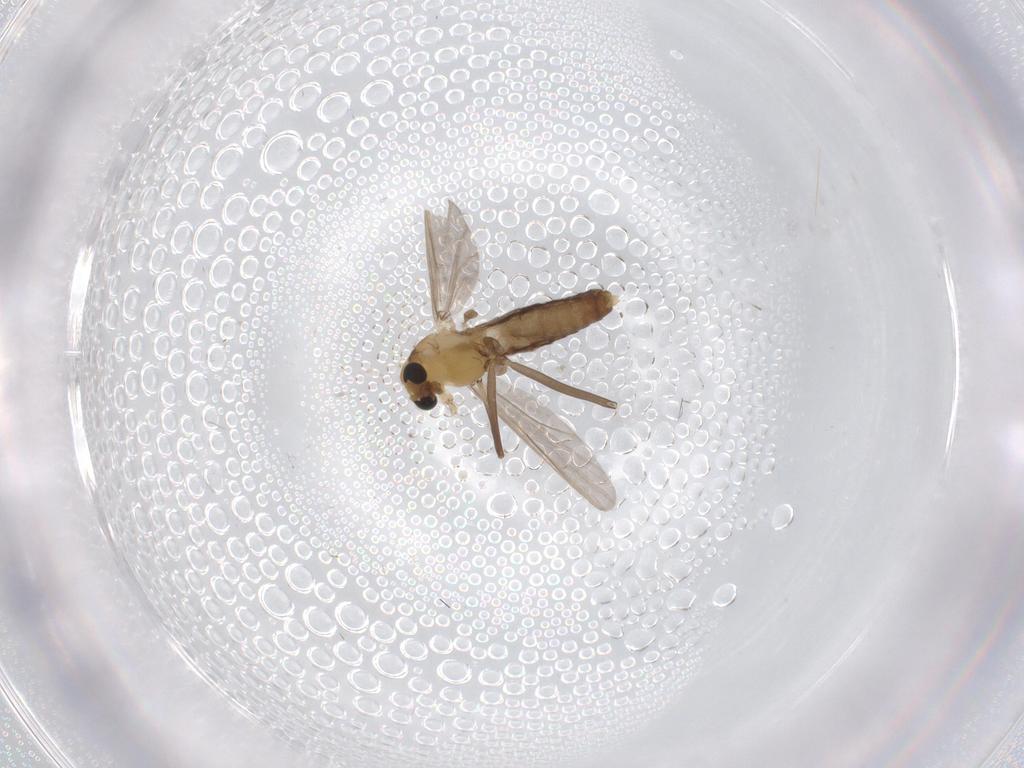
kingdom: Animalia
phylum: Arthropoda
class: Insecta
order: Diptera
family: Chironomidae
